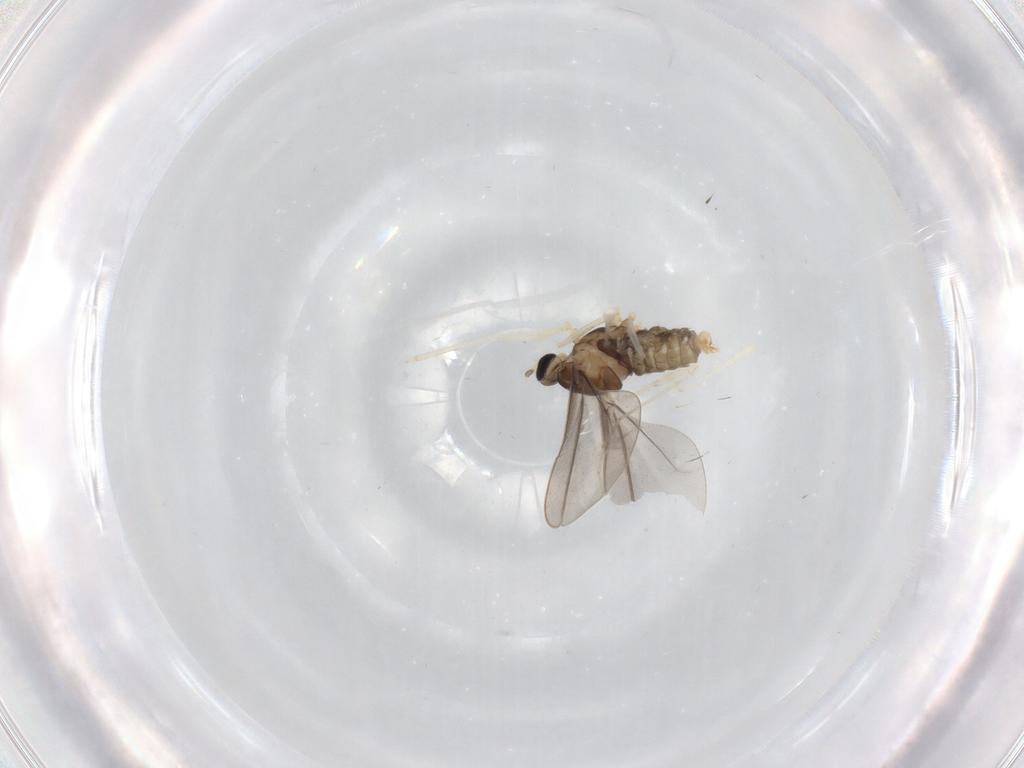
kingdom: Animalia
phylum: Arthropoda
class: Insecta
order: Diptera
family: Cecidomyiidae
